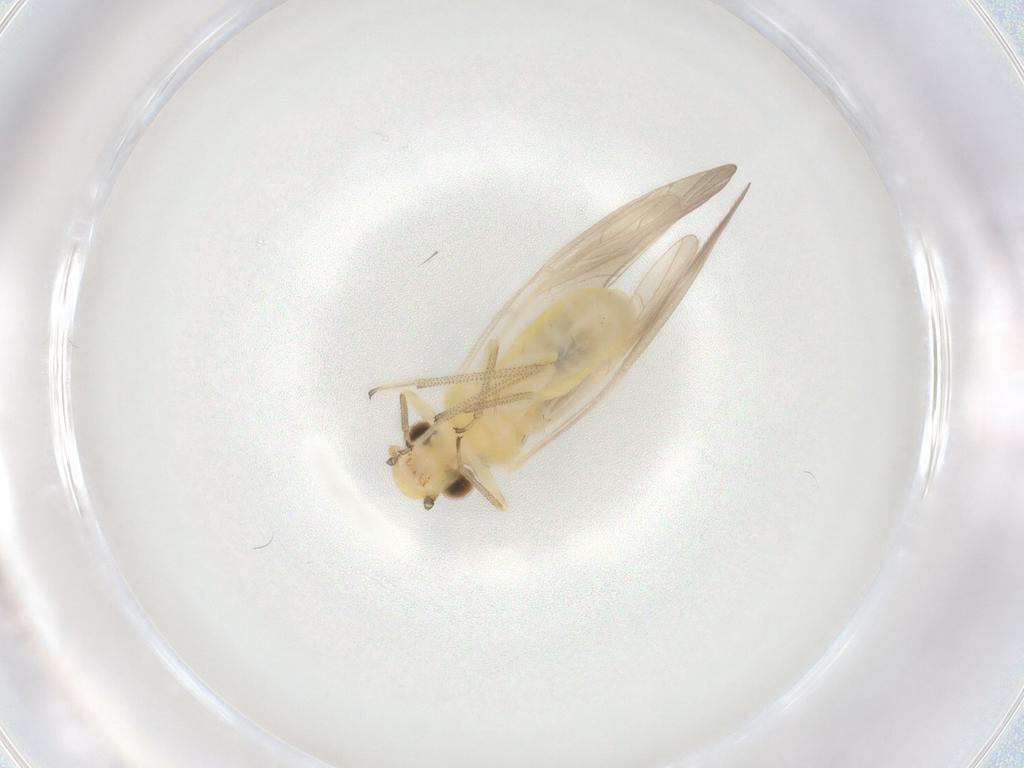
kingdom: Animalia
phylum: Arthropoda
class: Insecta
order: Psocodea
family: Caeciliusidae
